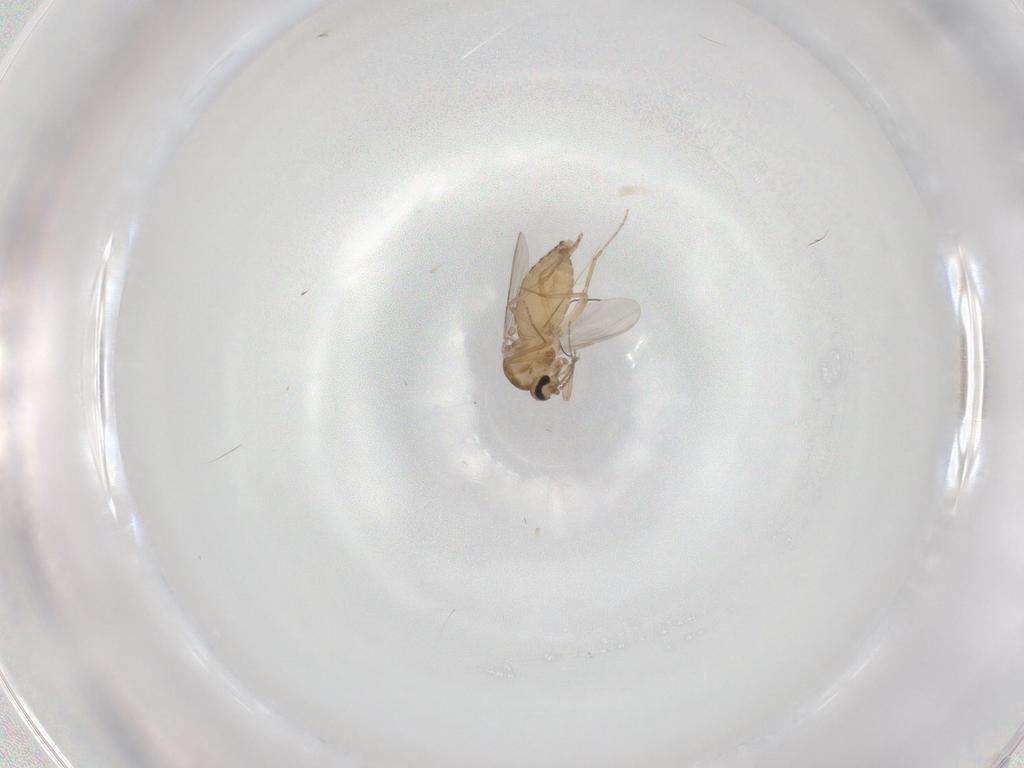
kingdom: Animalia
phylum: Arthropoda
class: Insecta
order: Diptera
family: Ceratopogonidae
